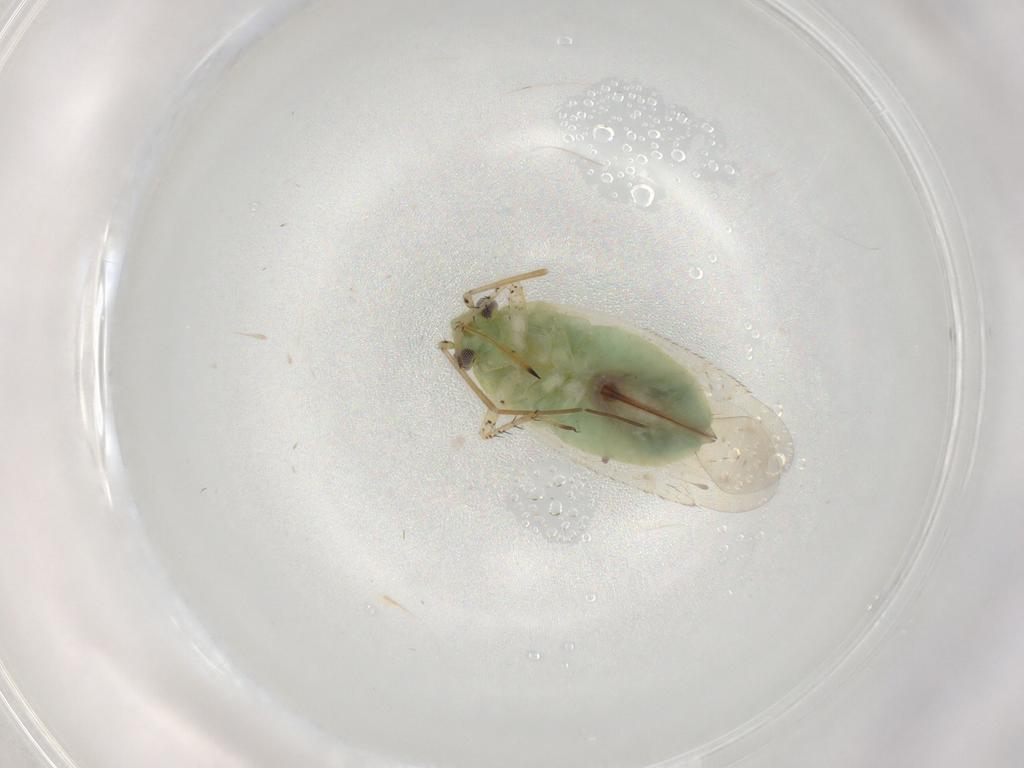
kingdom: Animalia
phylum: Arthropoda
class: Insecta
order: Hemiptera
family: Miridae
